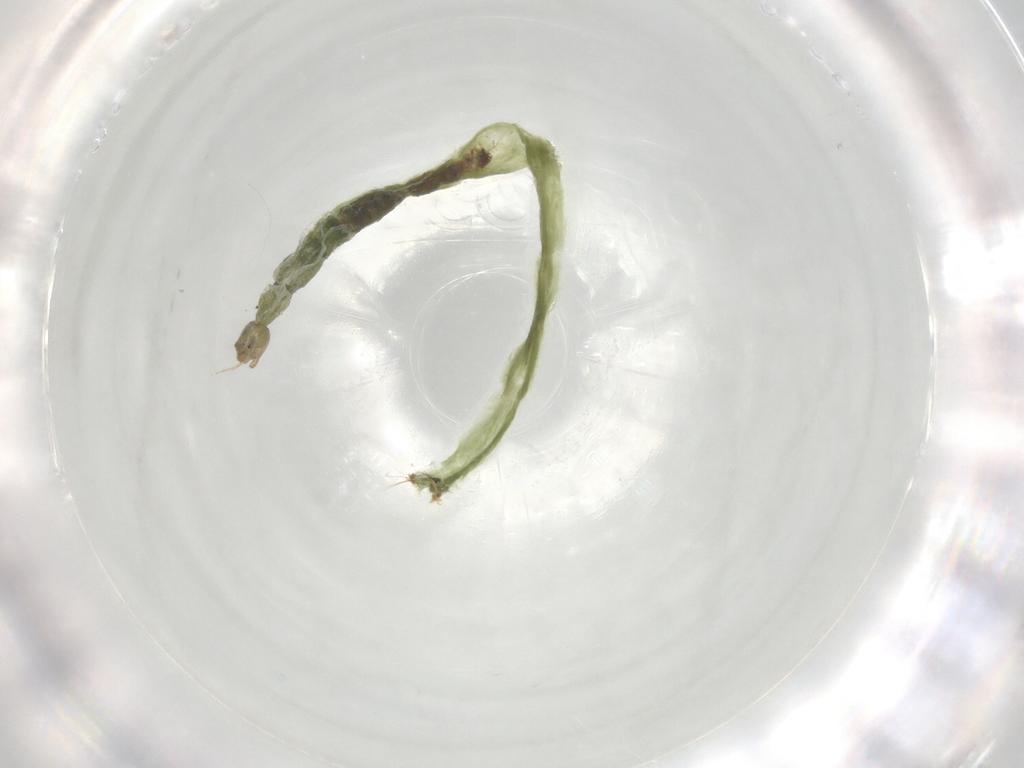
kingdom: Animalia
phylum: Arthropoda
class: Insecta
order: Diptera
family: Chironomidae
